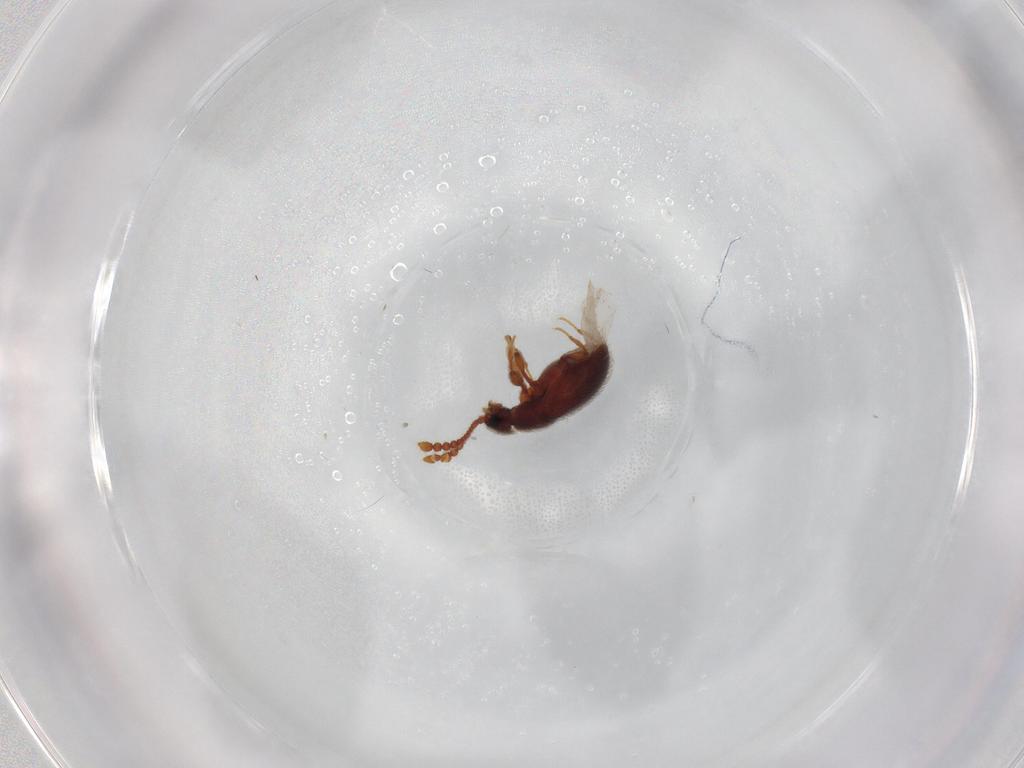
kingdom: Animalia
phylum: Arthropoda
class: Insecta
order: Coleoptera
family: Staphylinidae
